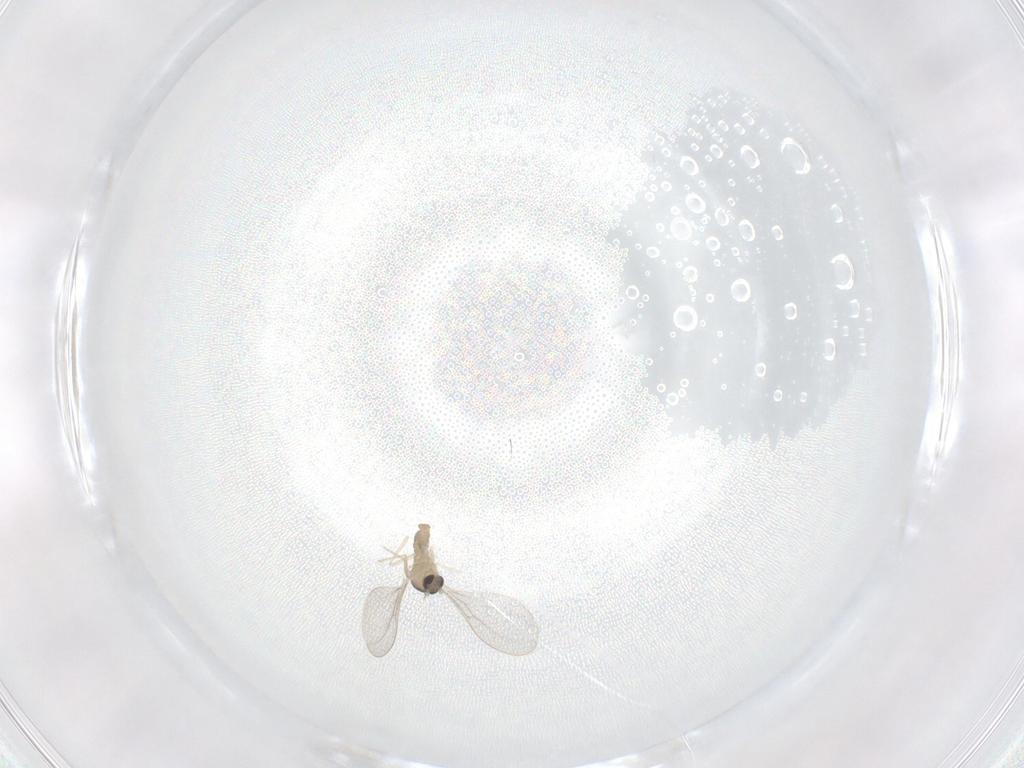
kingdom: Animalia
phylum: Arthropoda
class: Insecta
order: Diptera
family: Cecidomyiidae
